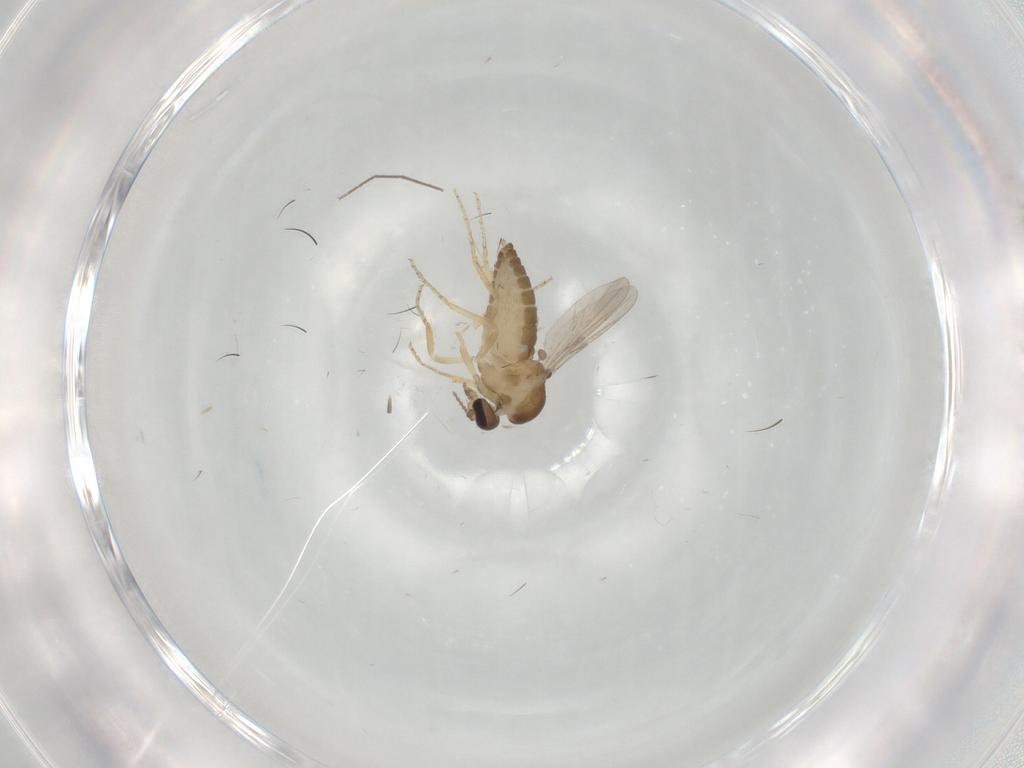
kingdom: Animalia
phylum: Arthropoda
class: Insecta
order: Diptera
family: Ceratopogonidae
